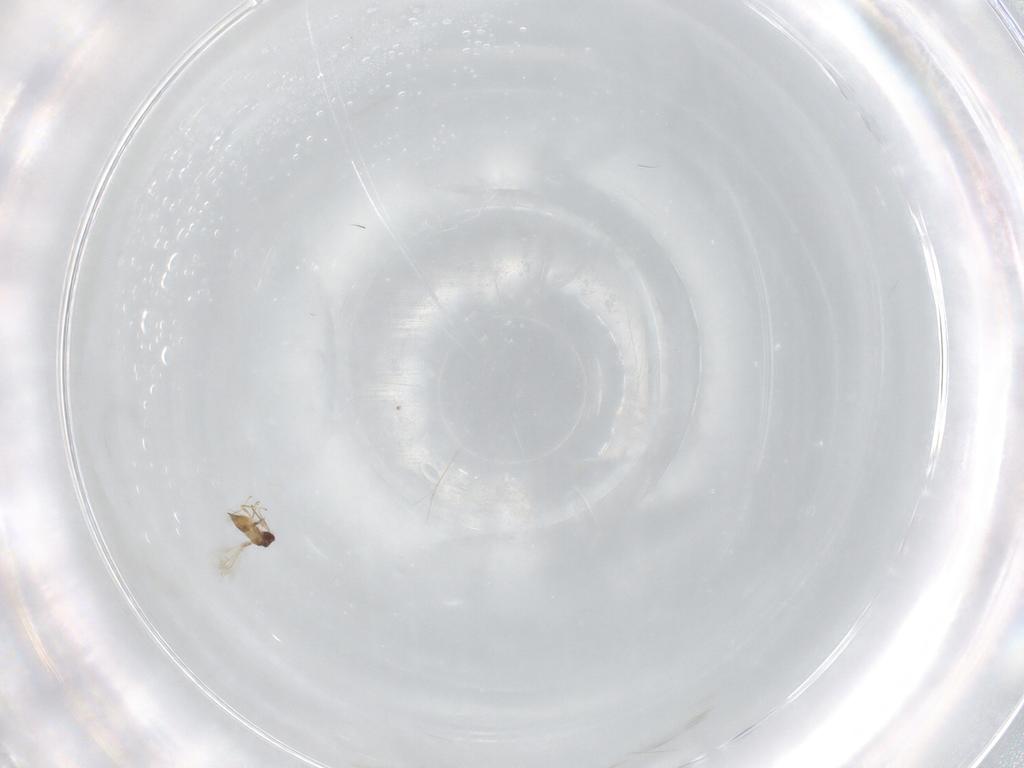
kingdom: Animalia
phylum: Arthropoda
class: Insecta
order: Hymenoptera
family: Mymaridae
